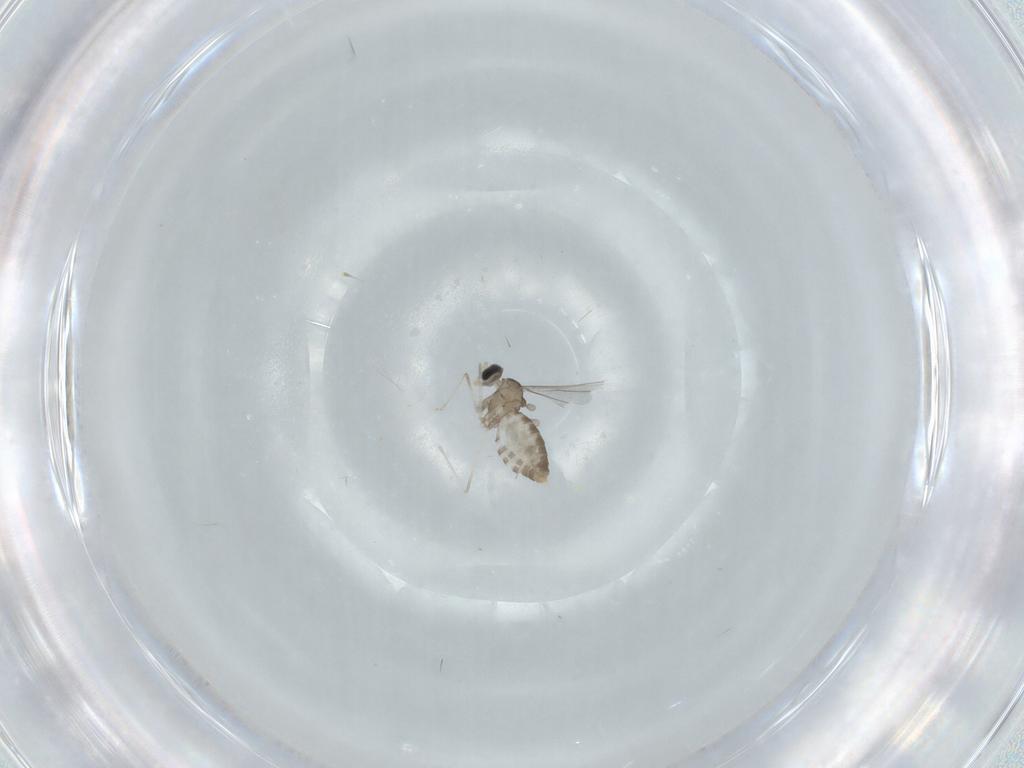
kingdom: Animalia
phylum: Arthropoda
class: Insecta
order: Diptera
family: Cecidomyiidae
